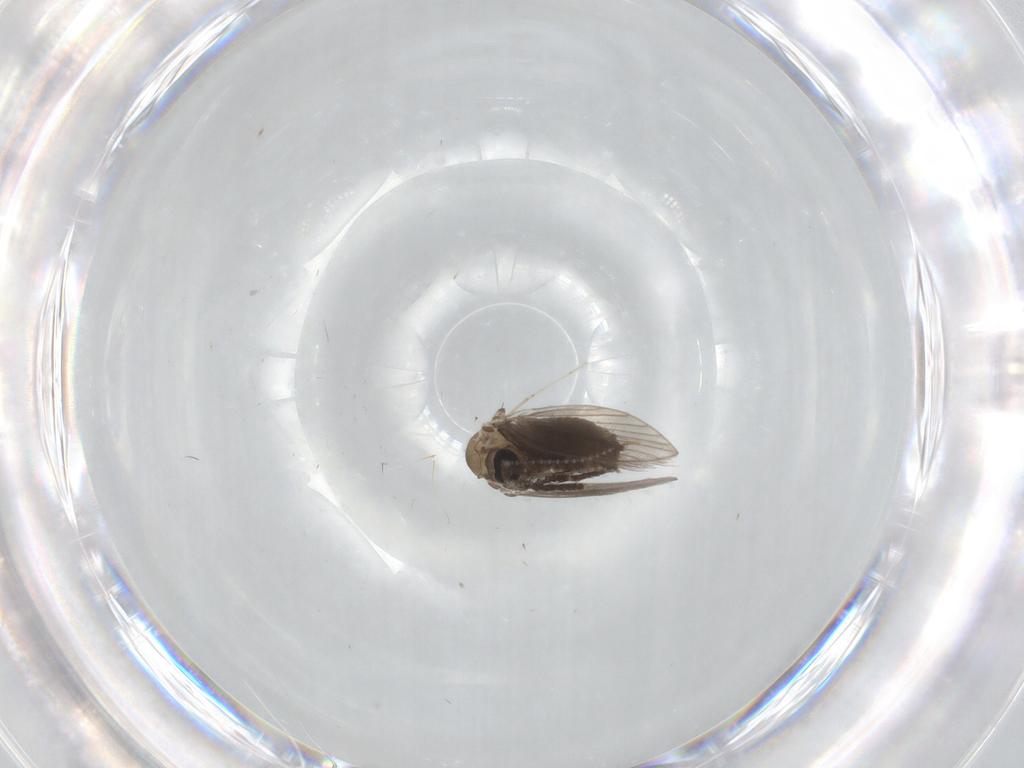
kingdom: Animalia
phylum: Arthropoda
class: Insecta
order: Diptera
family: Psychodidae
